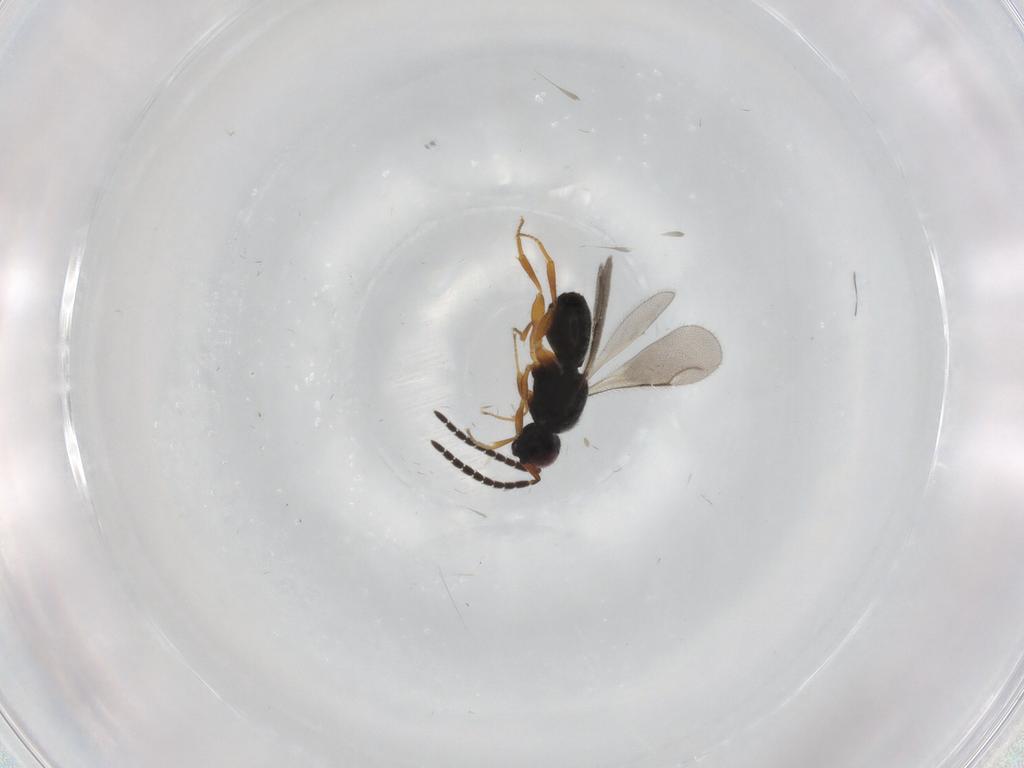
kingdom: Animalia
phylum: Arthropoda
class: Insecta
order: Hymenoptera
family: Ceraphronidae
